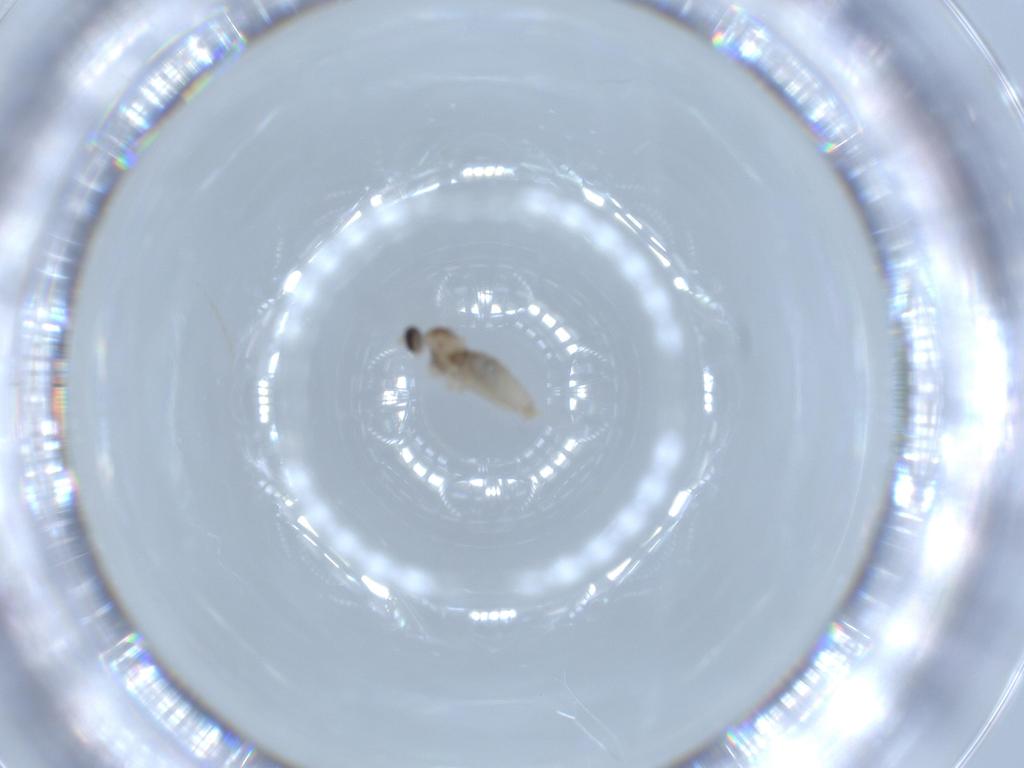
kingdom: Animalia
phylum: Arthropoda
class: Insecta
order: Diptera
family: Cecidomyiidae
